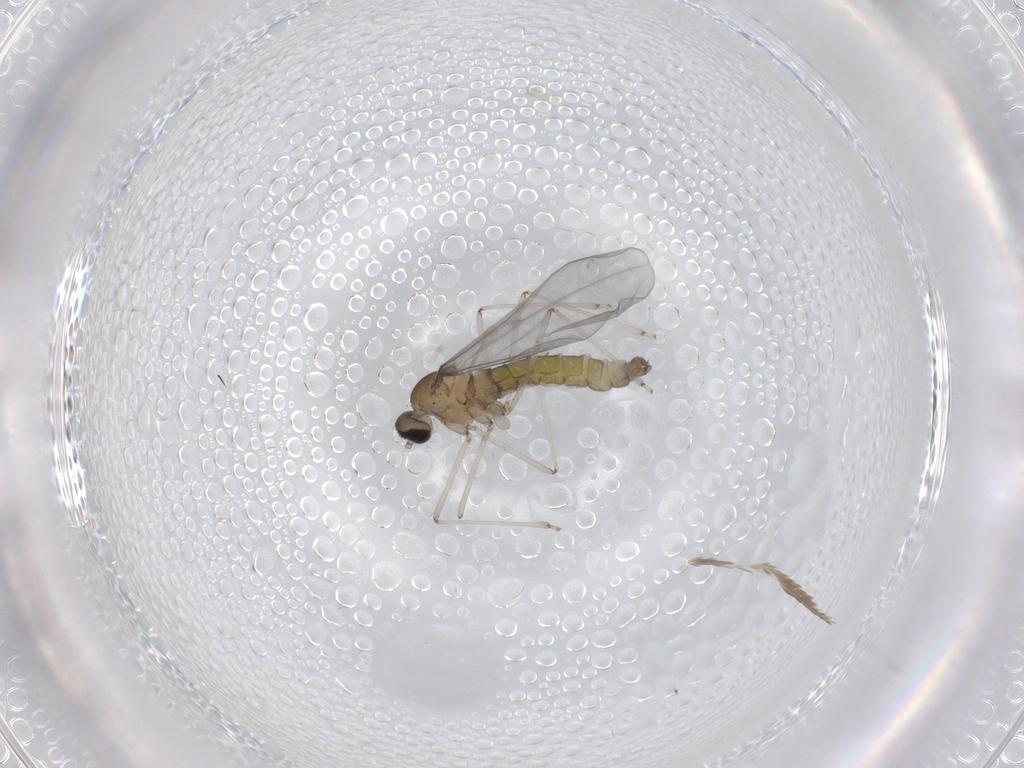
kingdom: Animalia
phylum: Arthropoda
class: Insecta
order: Diptera
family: Cecidomyiidae
